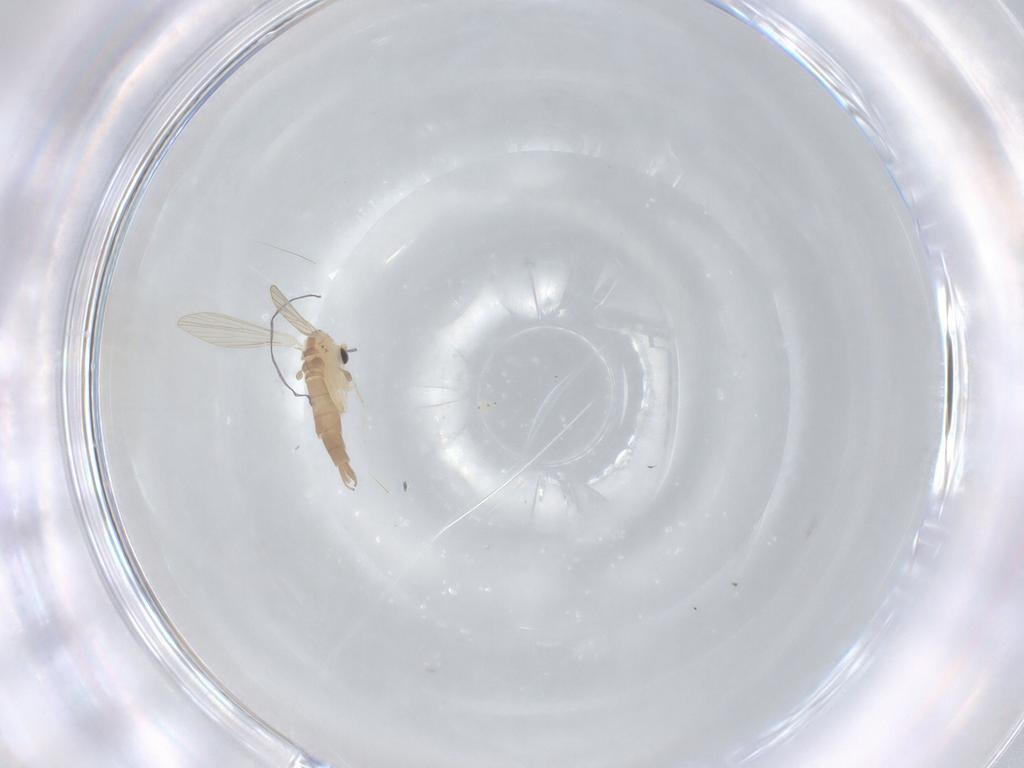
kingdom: Animalia
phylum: Arthropoda
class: Insecta
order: Diptera
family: Psychodidae
